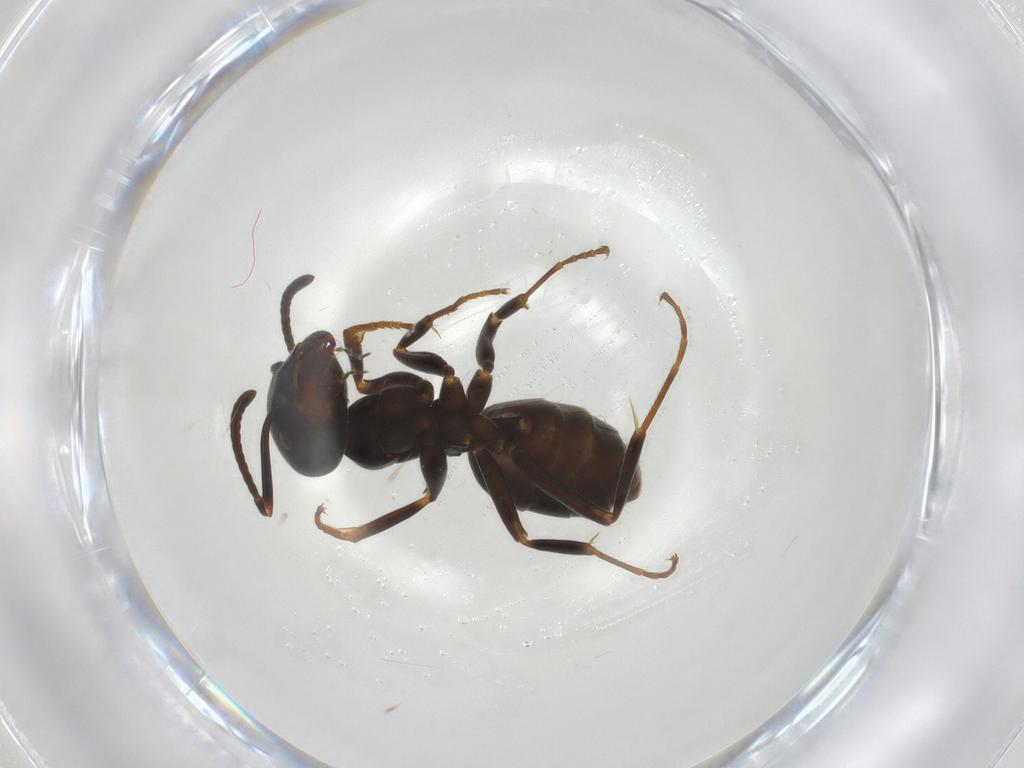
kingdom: Animalia
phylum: Arthropoda
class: Insecta
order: Hymenoptera
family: Formicidae
